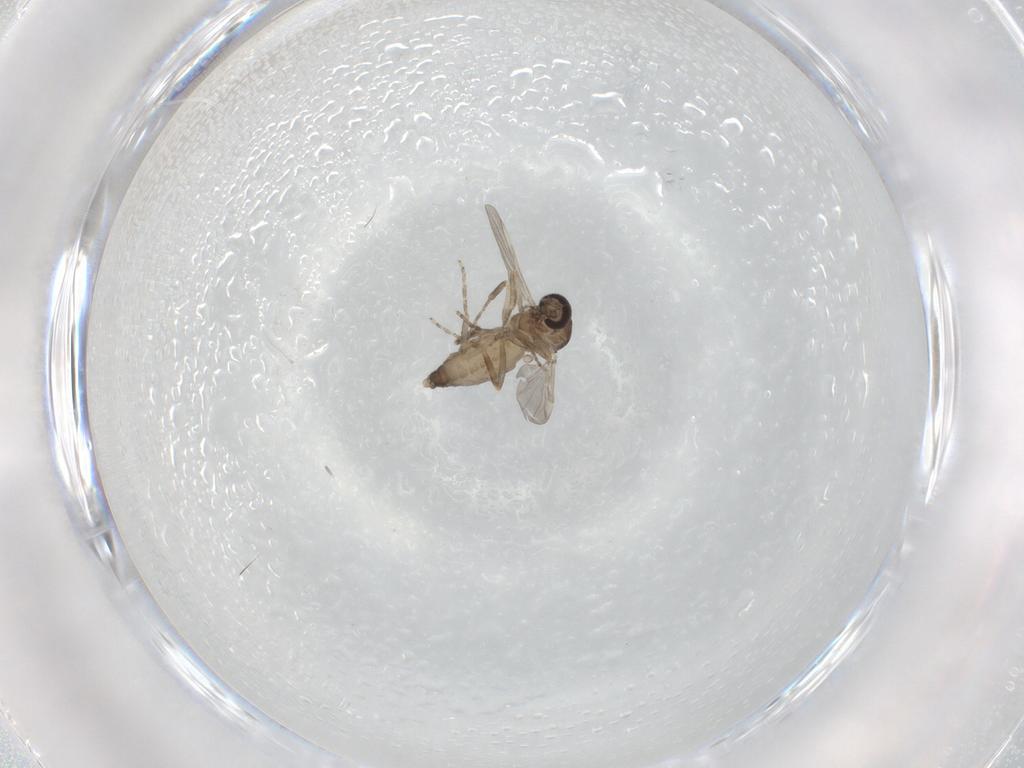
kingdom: Animalia
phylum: Arthropoda
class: Insecta
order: Diptera
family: Ceratopogonidae
